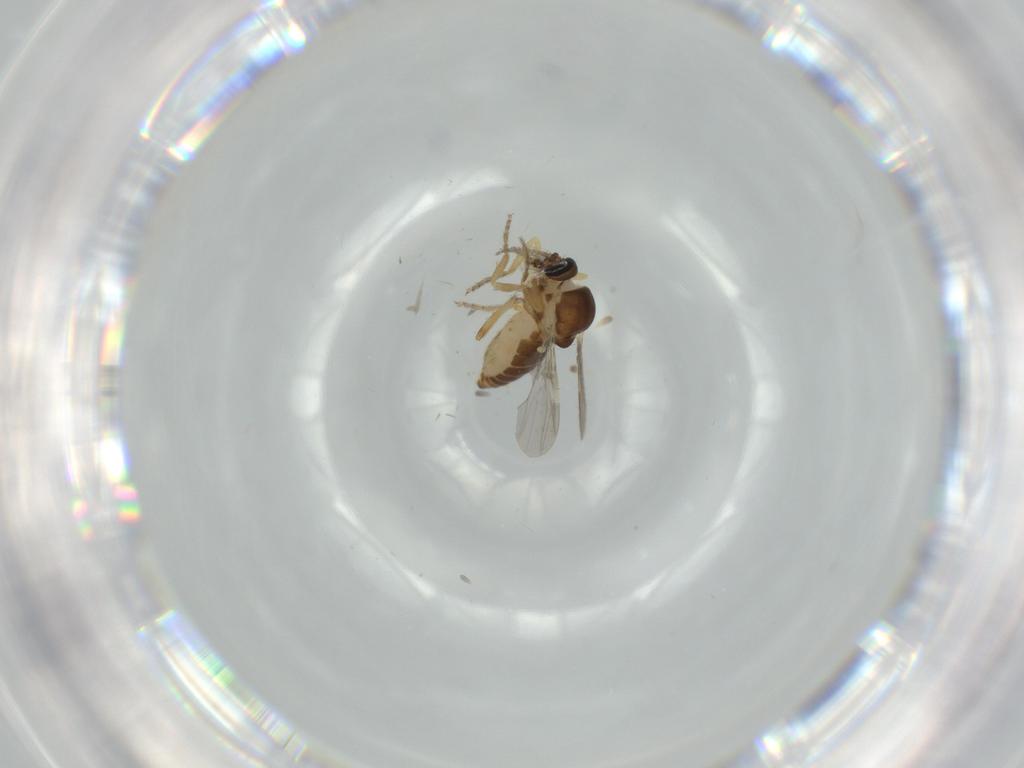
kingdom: Animalia
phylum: Arthropoda
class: Insecta
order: Diptera
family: Ceratopogonidae
